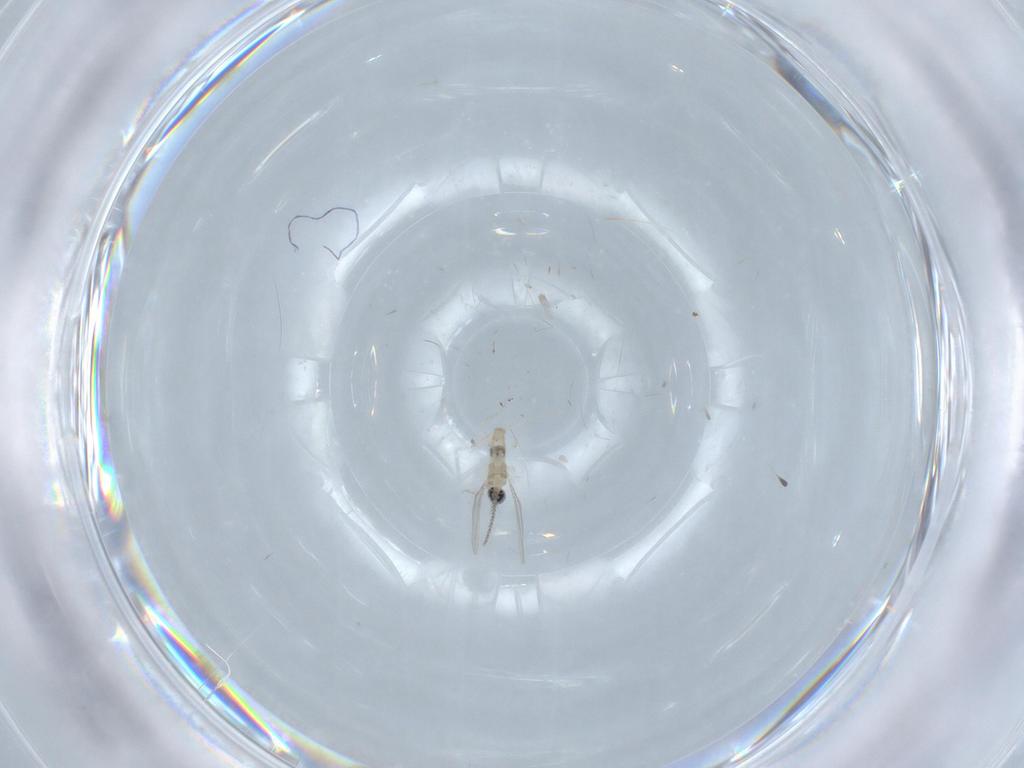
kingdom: Animalia
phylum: Arthropoda
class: Insecta
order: Diptera
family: Cecidomyiidae
